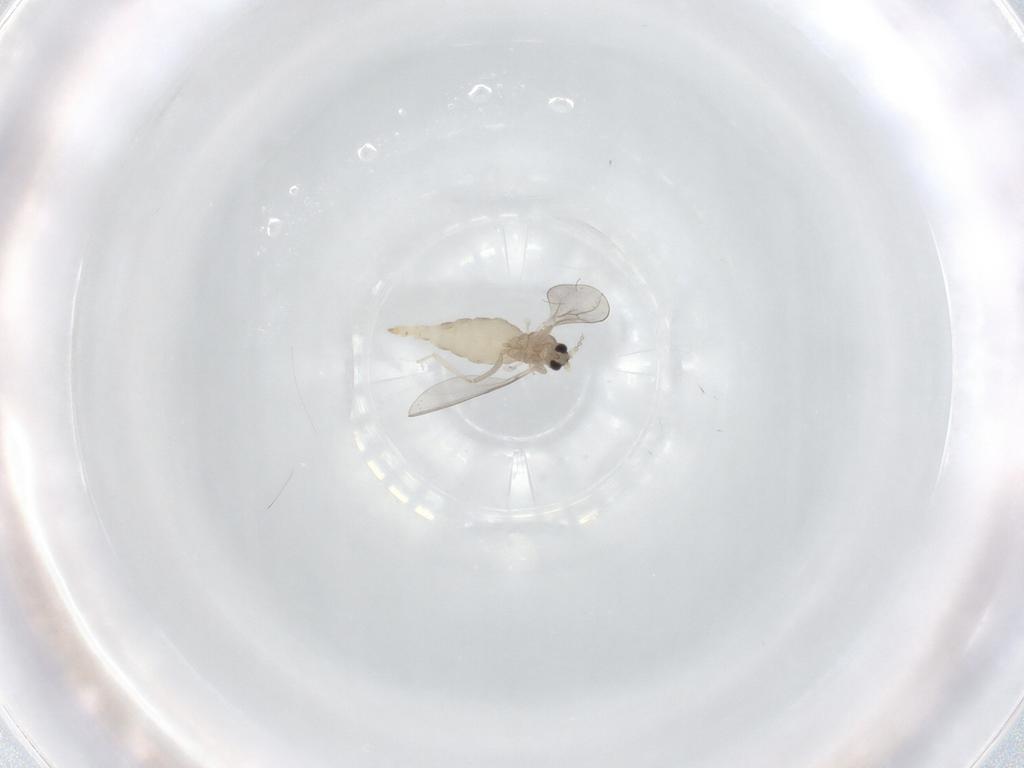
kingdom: Animalia
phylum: Arthropoda
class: Insecta
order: Diptera
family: Cecidomyiidae
